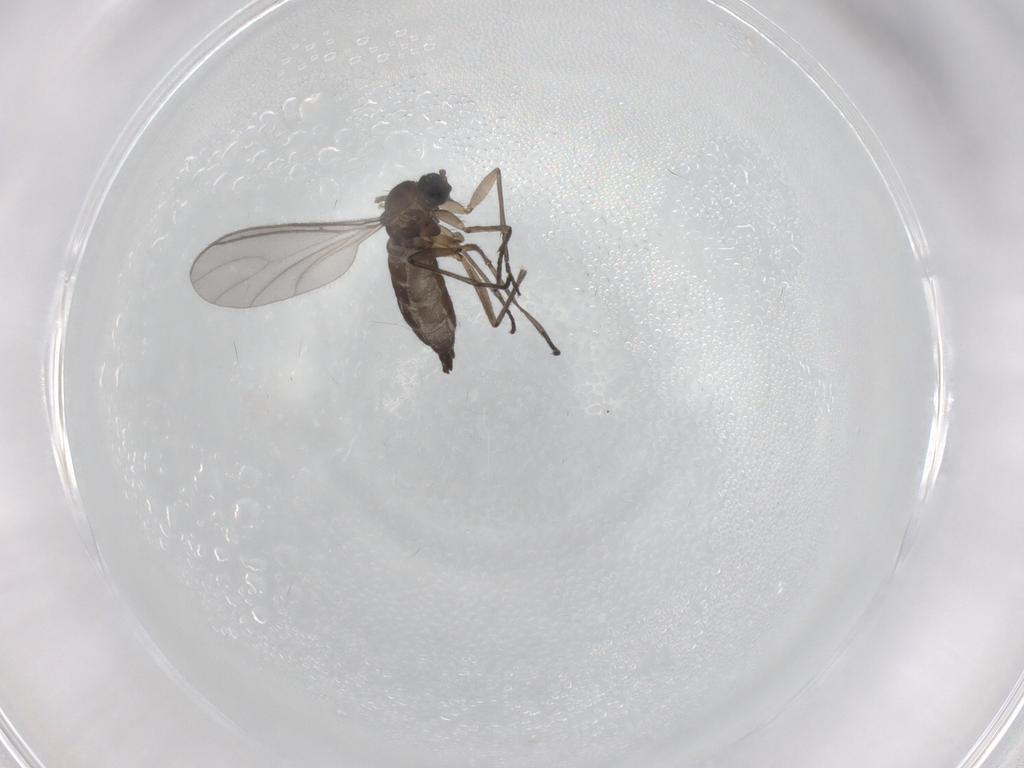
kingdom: Animalia
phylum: Arthropoda
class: Insecta
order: Diptera
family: Sciaridae
